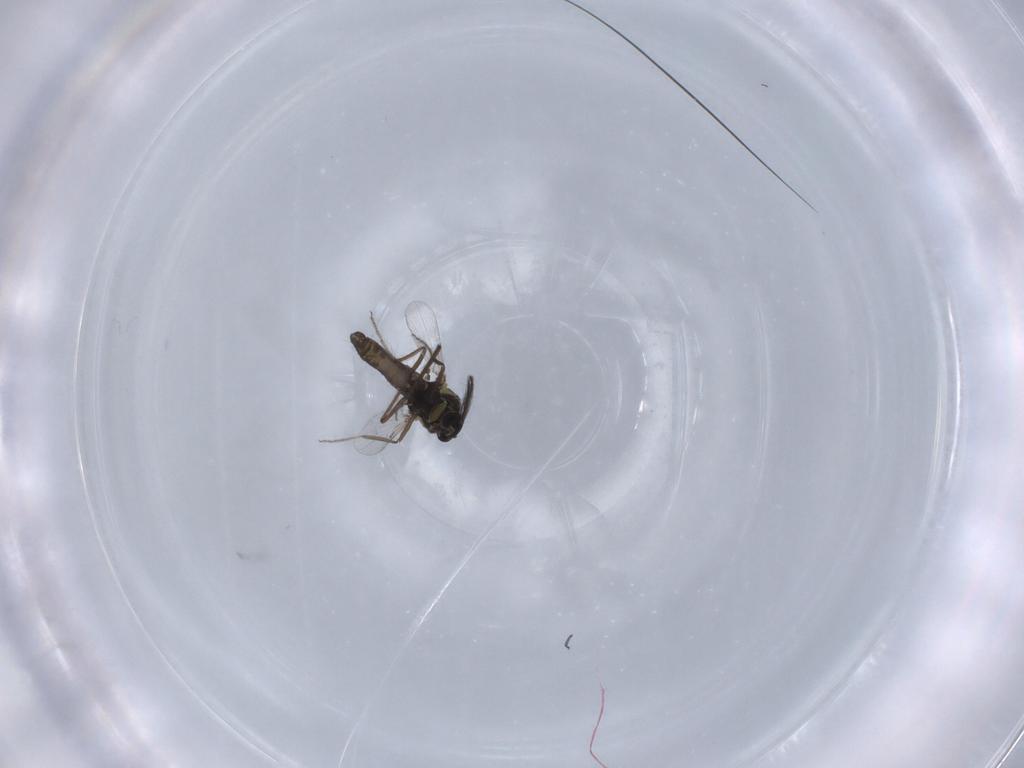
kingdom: Animalia
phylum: Arthropoda
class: Insecta
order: Diptera
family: Ceratopogonidae
